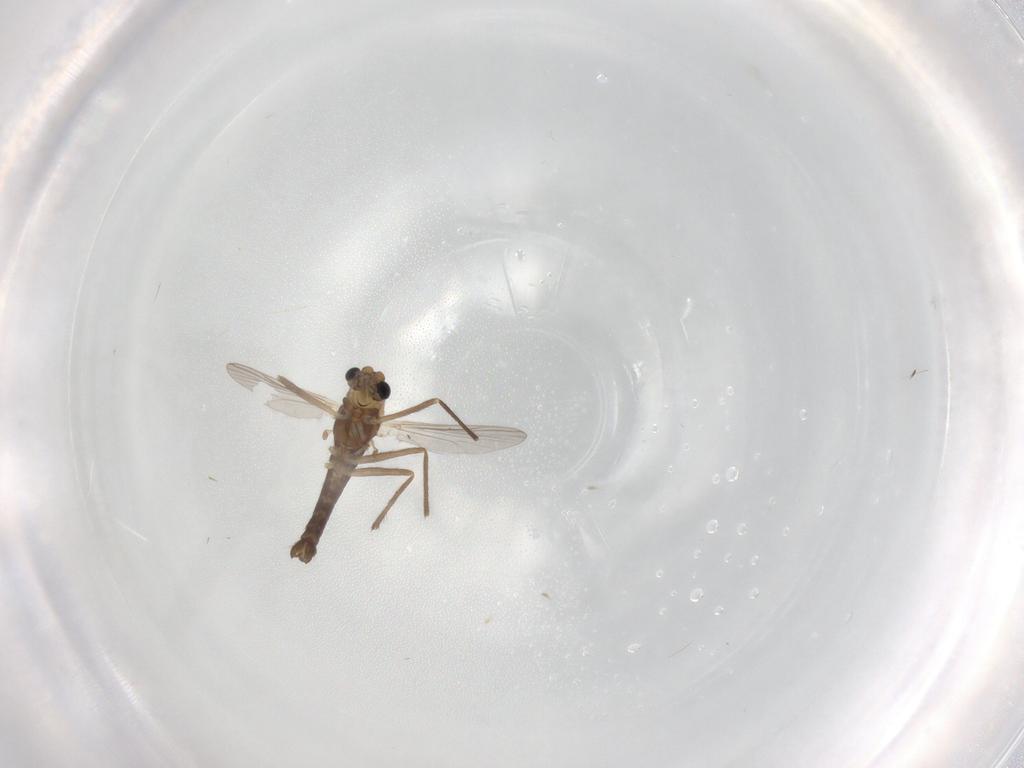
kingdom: Animalia
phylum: Arthropoda
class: Insecta
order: Diptera
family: Chironomidae
